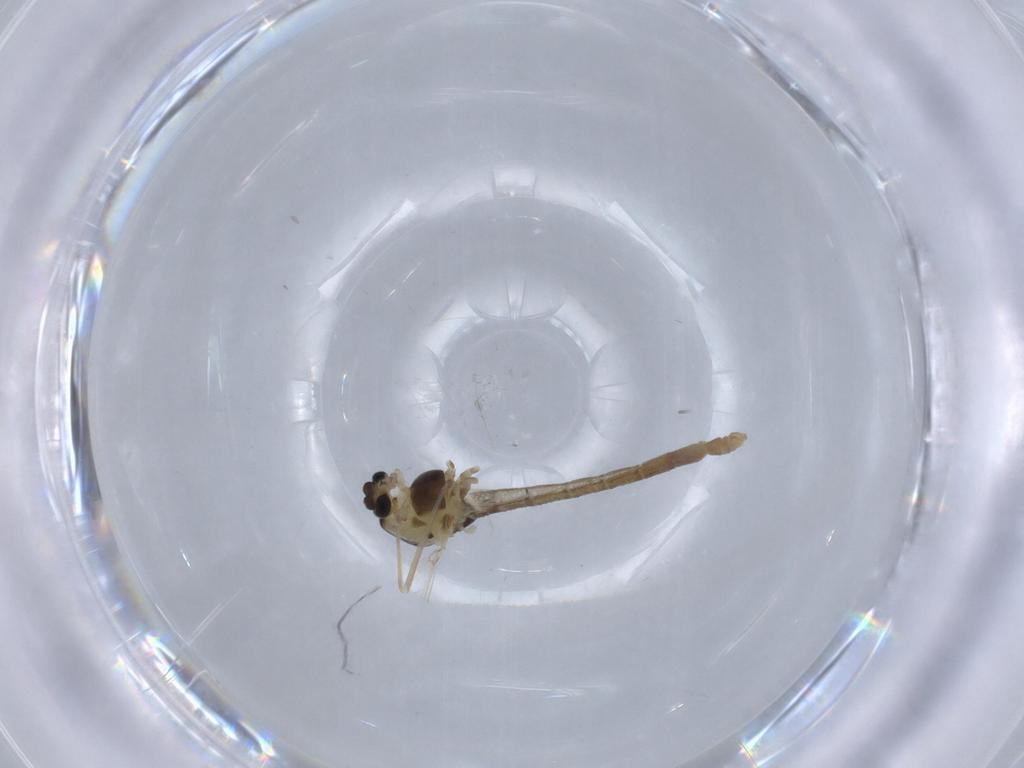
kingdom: Animalia
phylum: Arthropoda
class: Insecta
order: Diptera
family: Chironomidae
